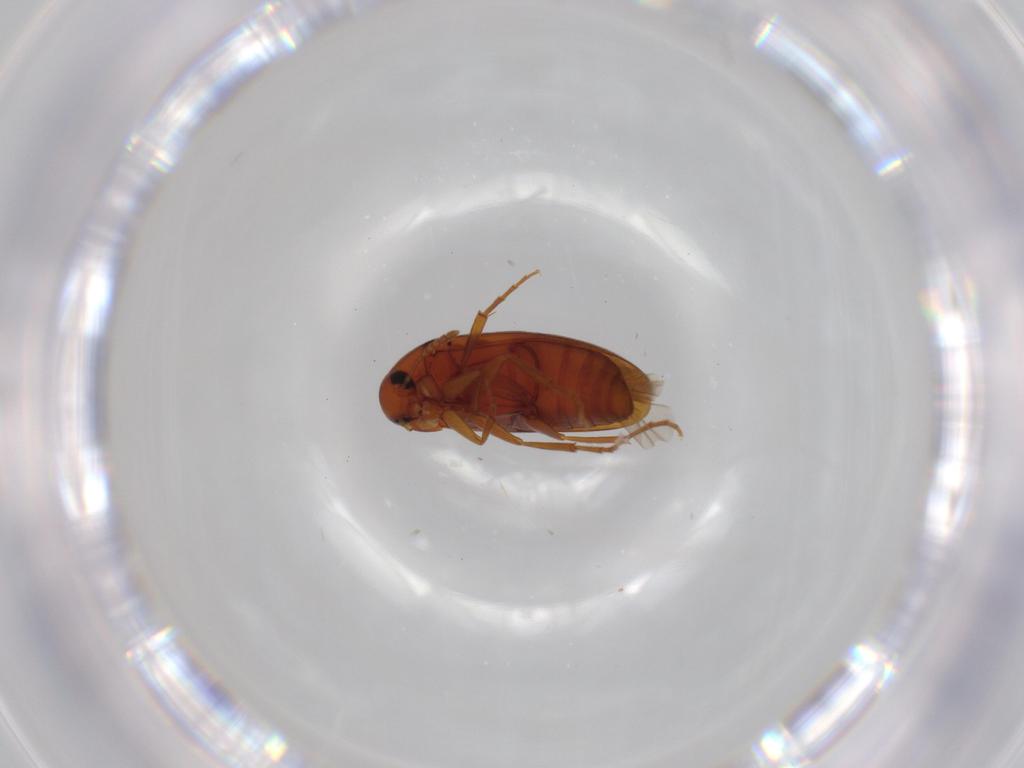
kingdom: Animalia
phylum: Arthropoda
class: Insecta
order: Coleoptera
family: Scraptiidae
